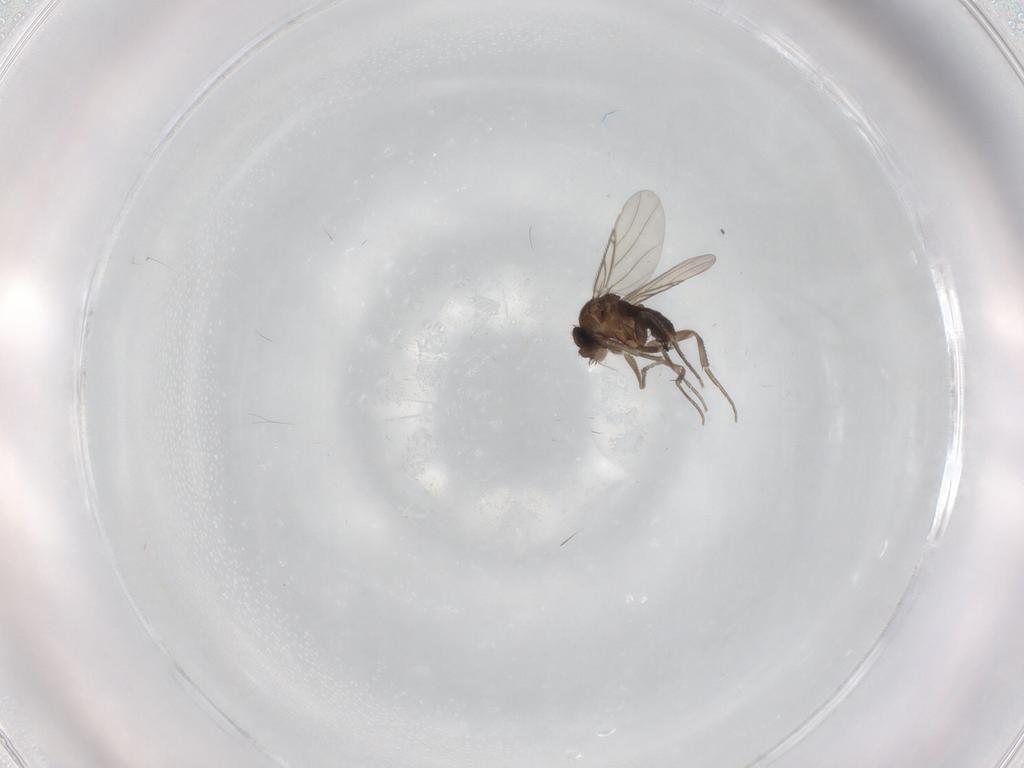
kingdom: Animalia
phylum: Arthropoda
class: Insecta
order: Diptera
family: Phoridae
